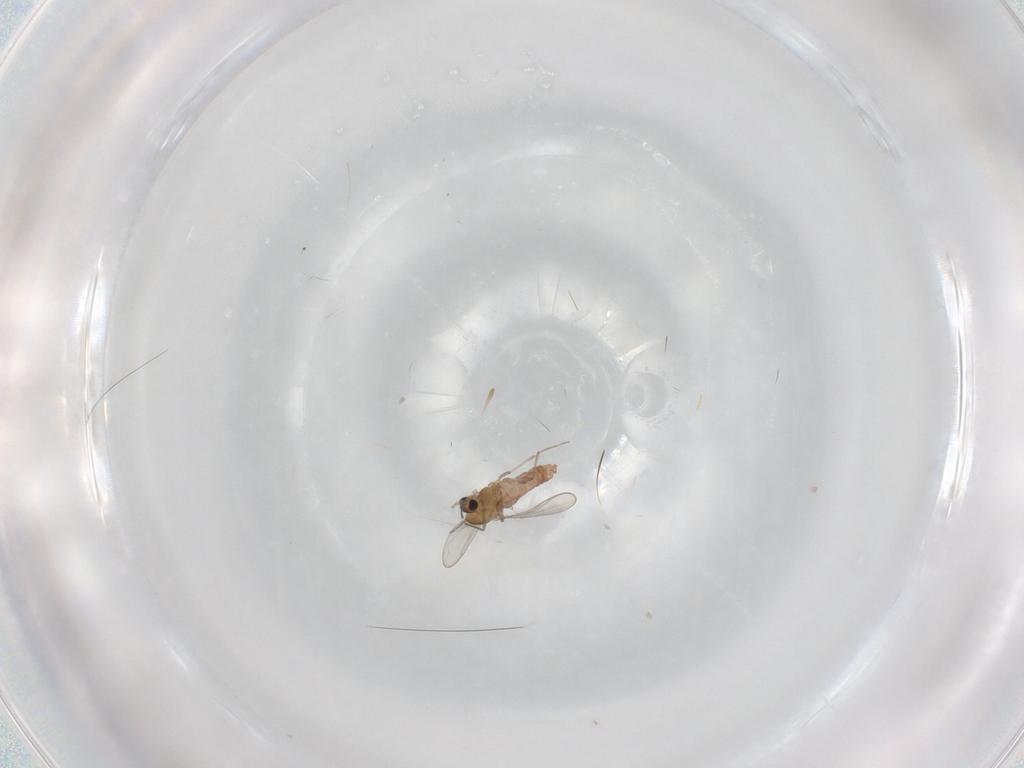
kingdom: Animalia
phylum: Arthropoda
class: Insecta
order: Diptera
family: Chironomidae
